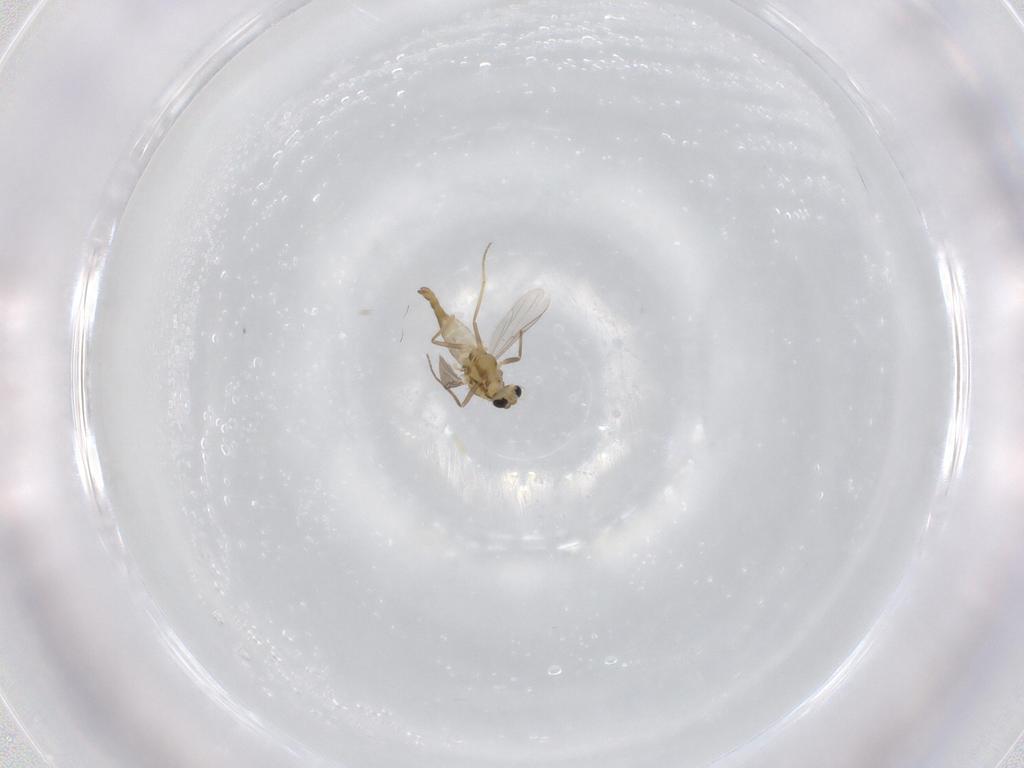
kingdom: Animalia
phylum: Arthropoda
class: Insecta
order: Diptera
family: Chironomidae
